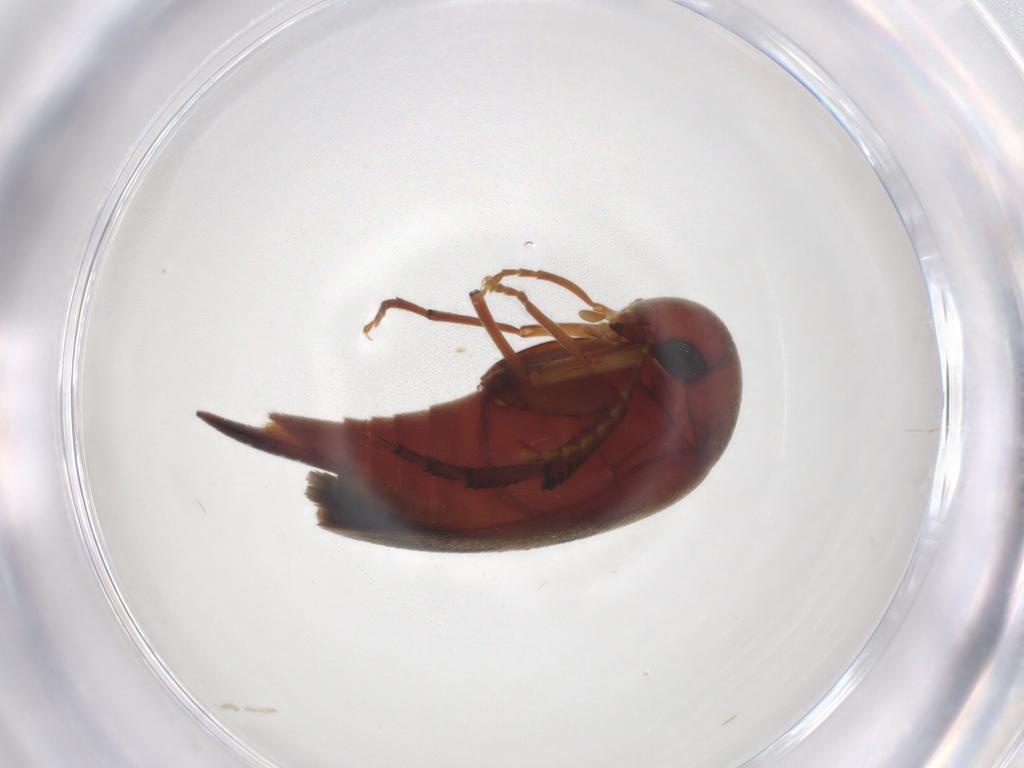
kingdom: Animalia
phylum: Arthropoda
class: Insecta
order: Coleoptera
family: Mordellidae
